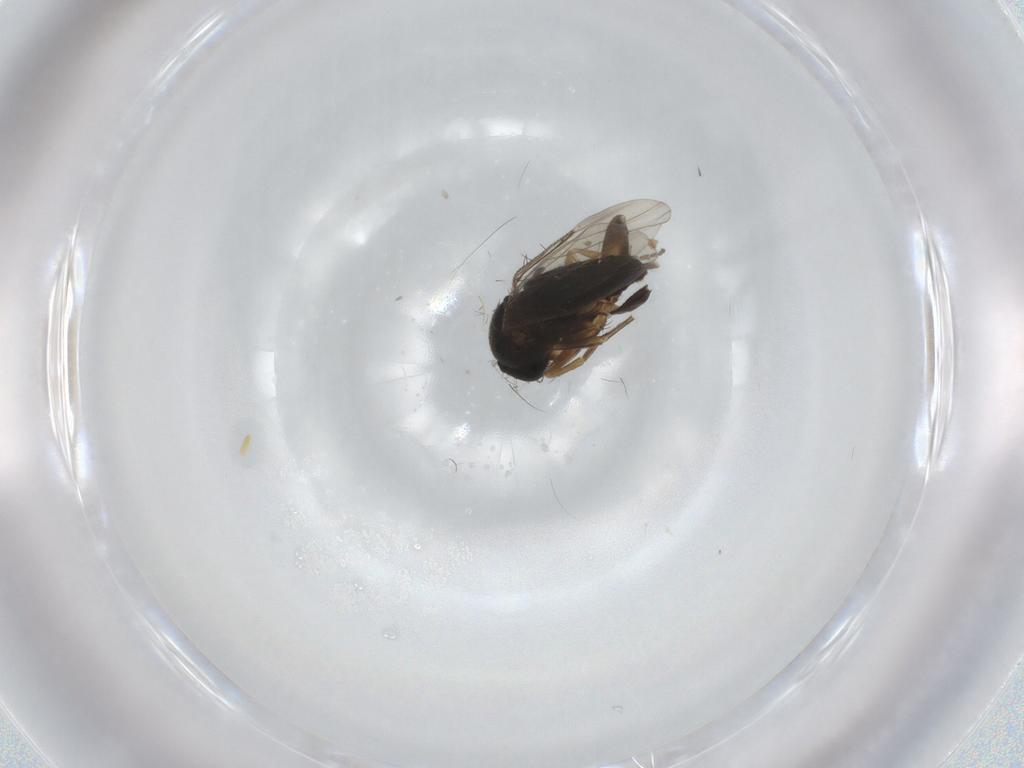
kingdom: Animalia
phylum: Arthropoda
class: Insecta
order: Diptera
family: Phoridae
